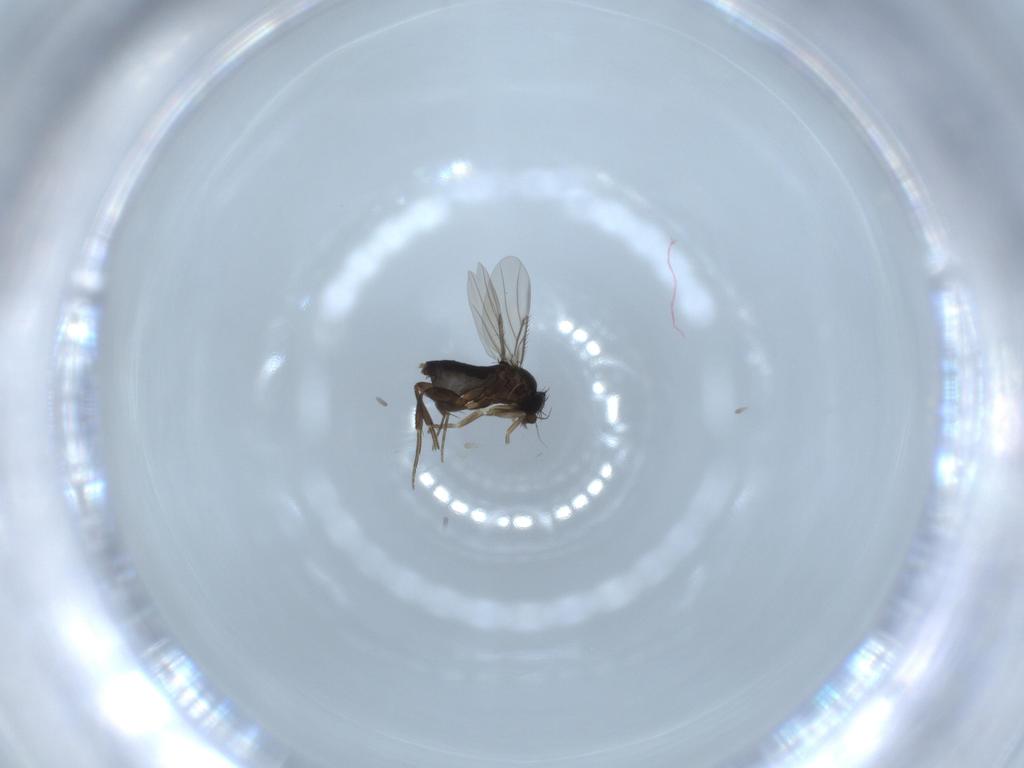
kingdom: Animalia
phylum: Arthropoda
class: Insecta
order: Diptera
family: Phoridae
